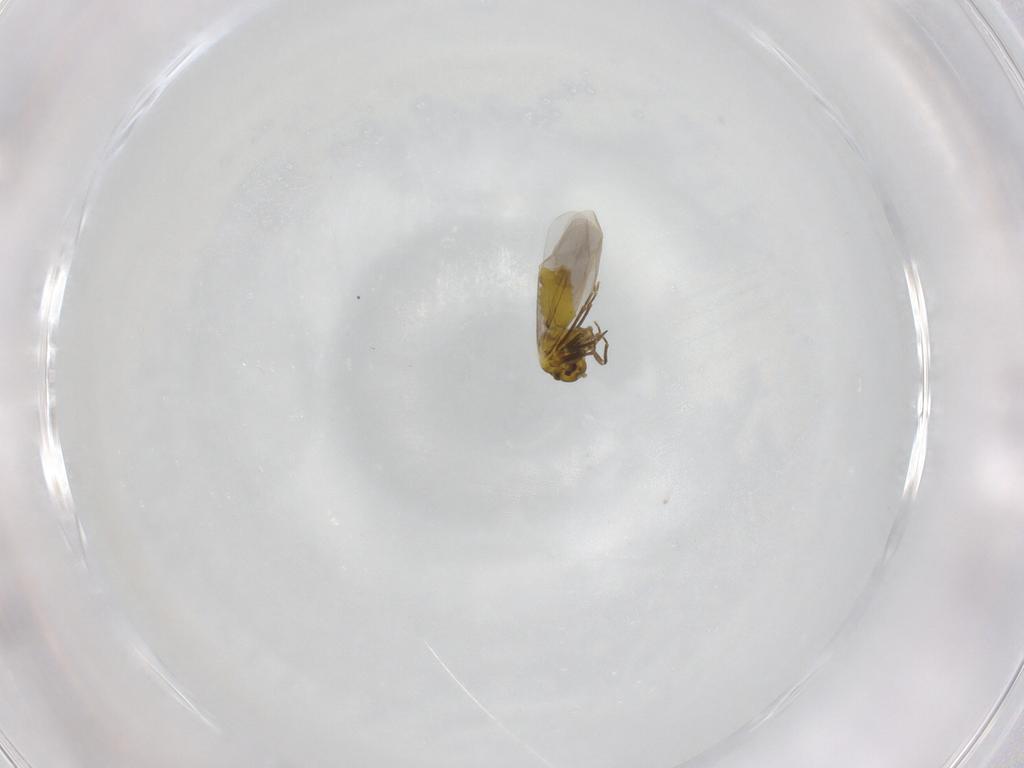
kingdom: Animalia
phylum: Arthropoda
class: Insecta
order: Hemiptera
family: Aleyrodidae
